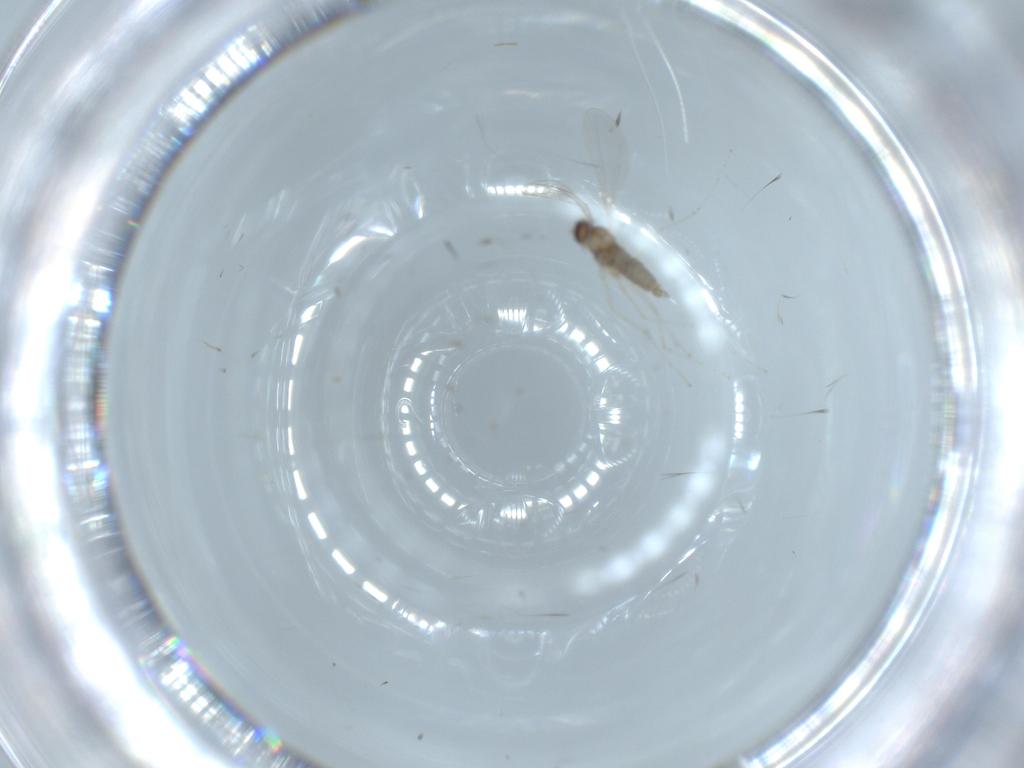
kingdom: Animalia
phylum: Arthropoda
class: Insecta
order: Diptera
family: Cecidomyiidae
